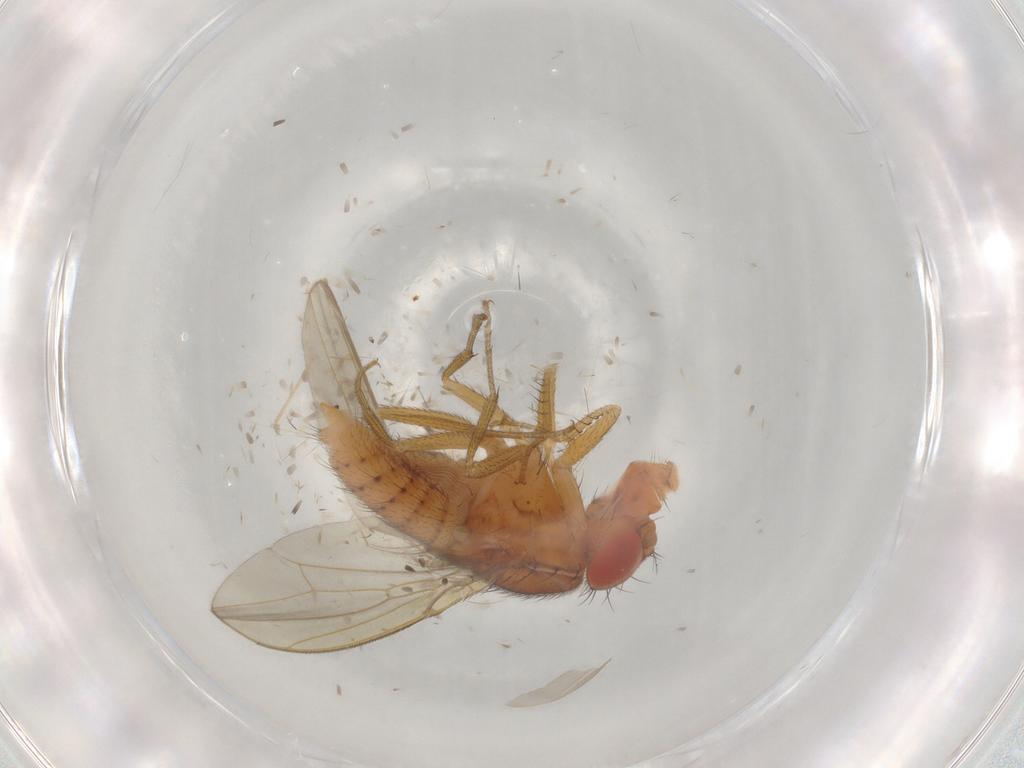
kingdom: Animalia
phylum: Arthropoda
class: Insecta
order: Diptera
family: Drosophilidae
